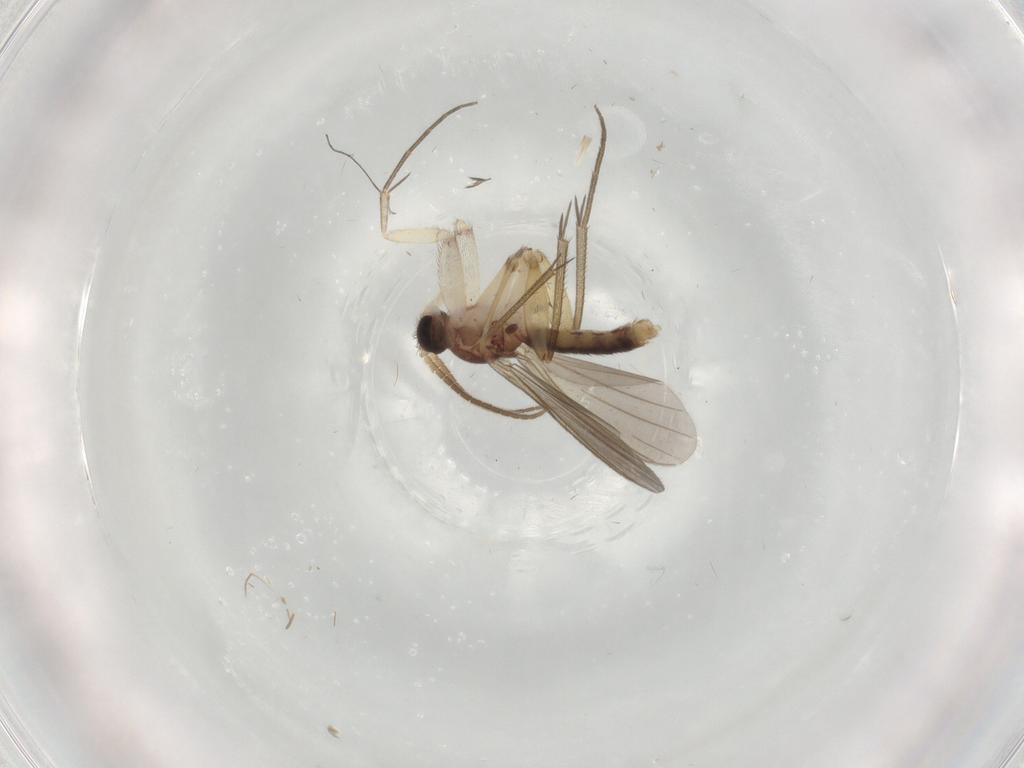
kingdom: Animalia
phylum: Arthropoda
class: Insecta
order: Diptera
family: Mycetophilidae
